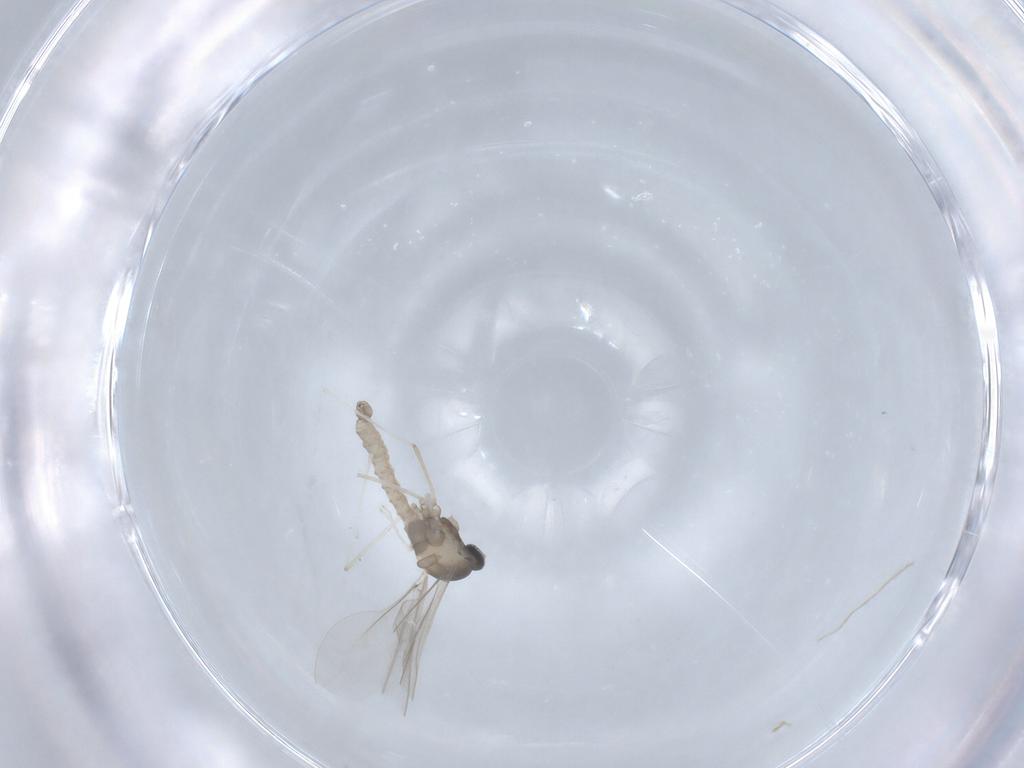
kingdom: Animalia
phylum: Arthropoda
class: Insecta
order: Diptera
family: Cecidomyiidae
